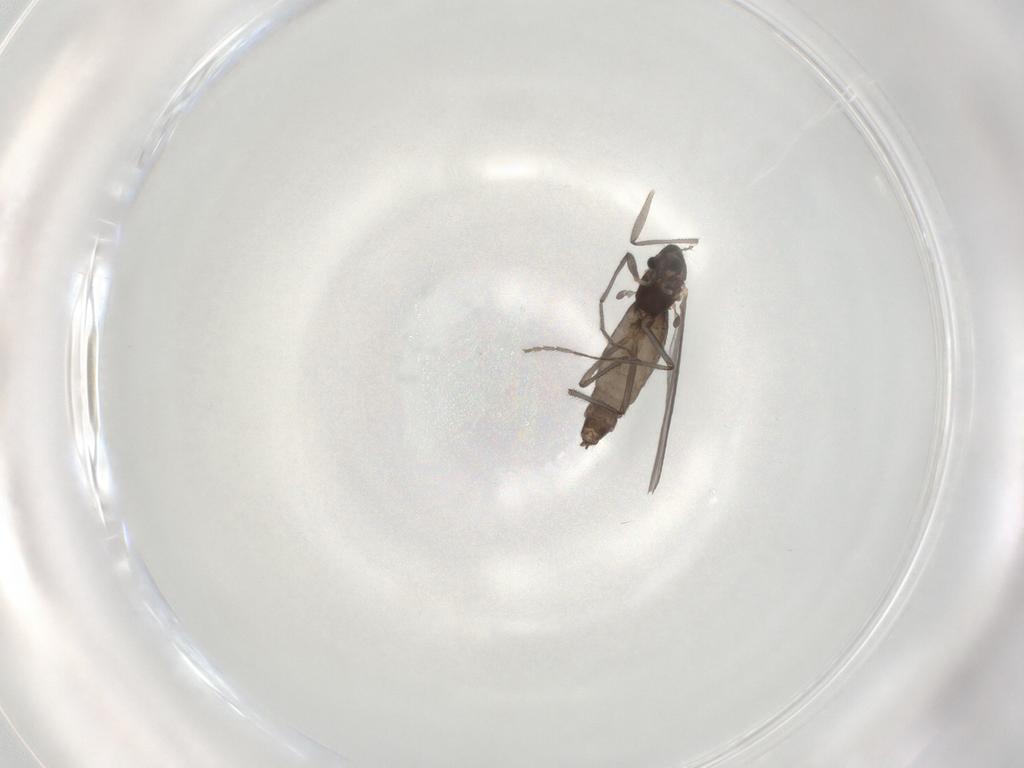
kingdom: Animalia
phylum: Arthropoda
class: Insecta
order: Diptera
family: Chironomidae
